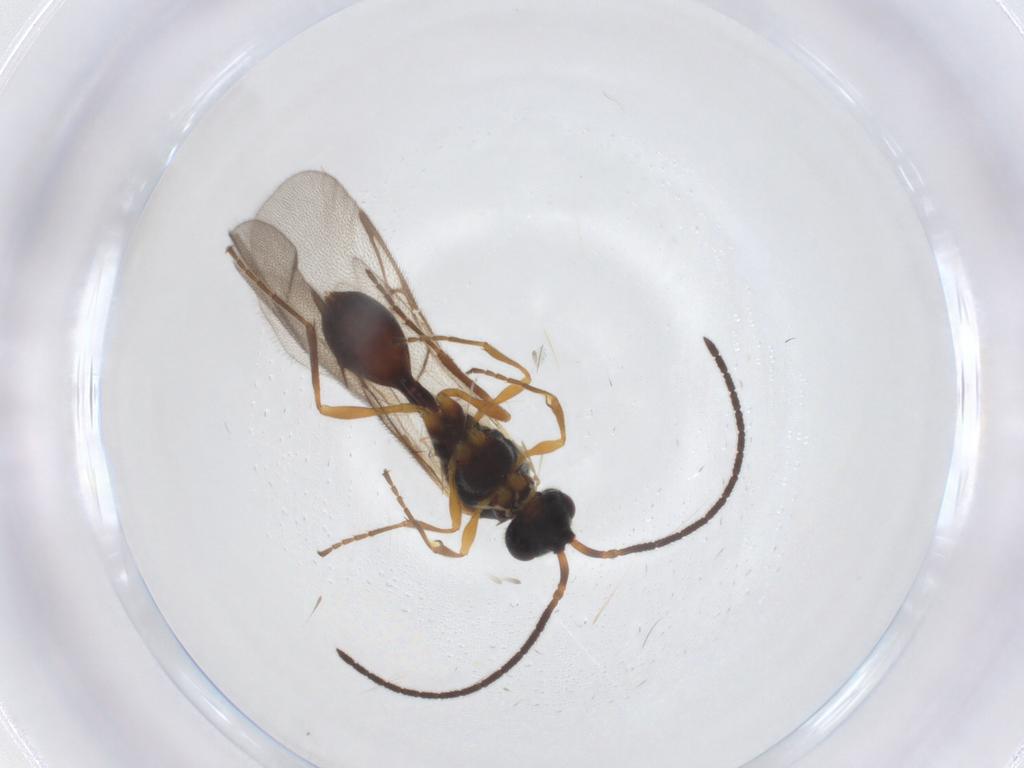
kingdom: Animalia
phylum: Arthropoda
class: Insecta
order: Hymenoptera
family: Diapriidae
